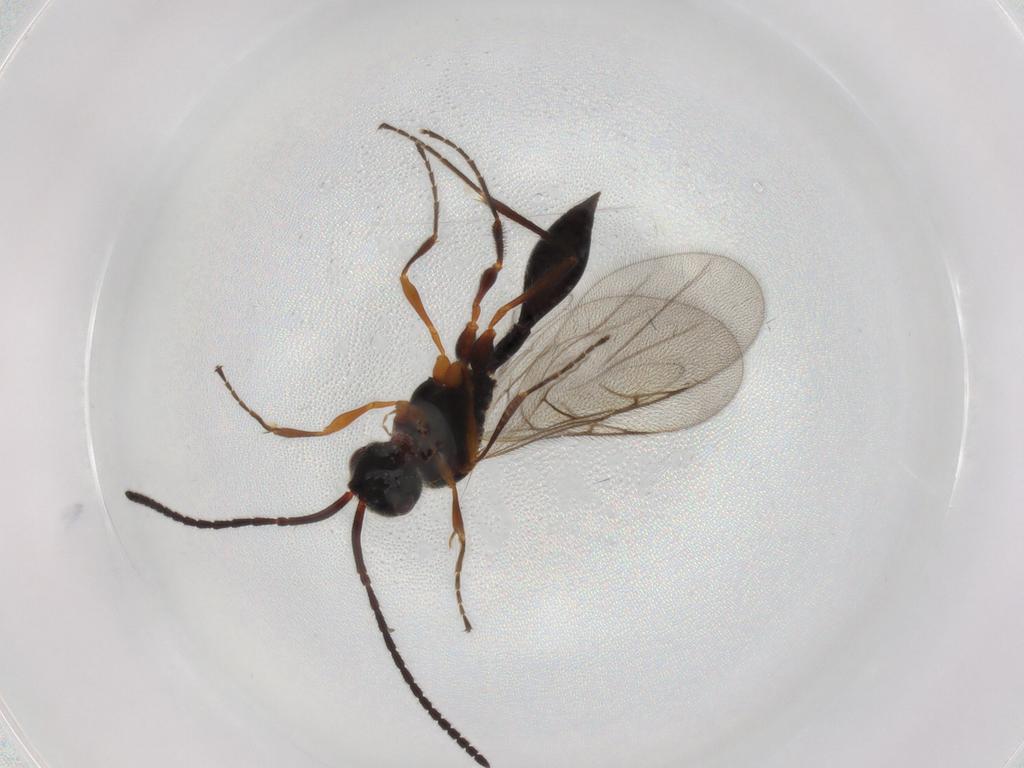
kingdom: Animalia
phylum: Arthropoda
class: Insecta
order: Hymenoptera
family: Diapriidae
